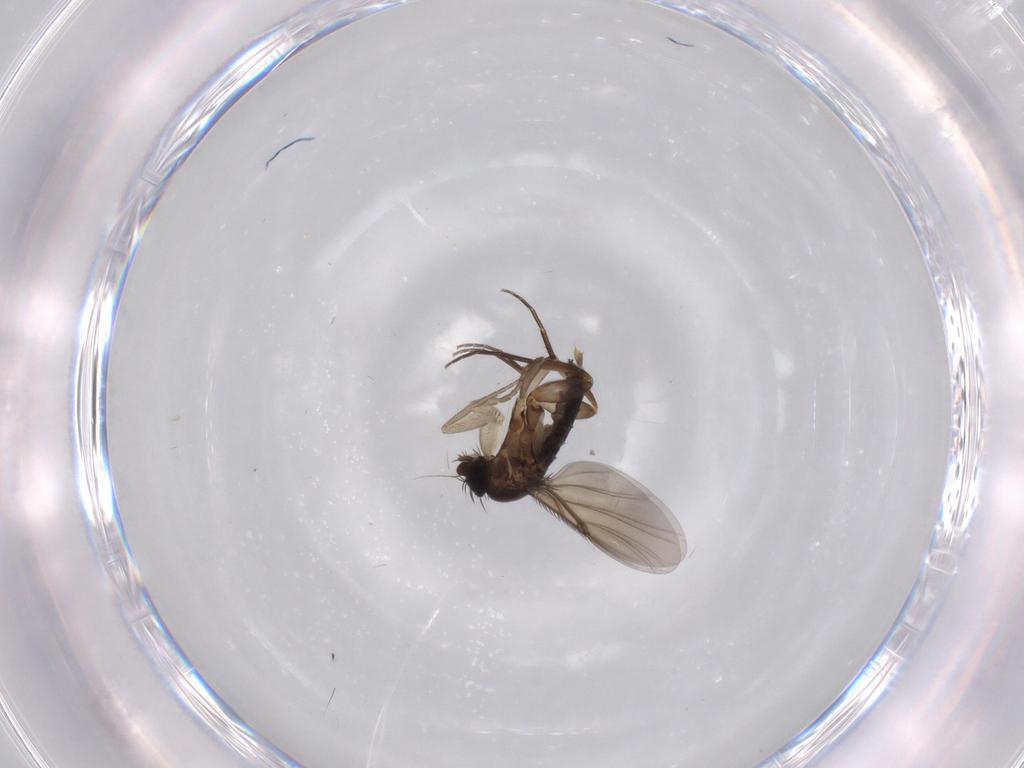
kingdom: Animalia
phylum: Arthropoda
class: Insecta
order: Diptera
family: Phoridae
